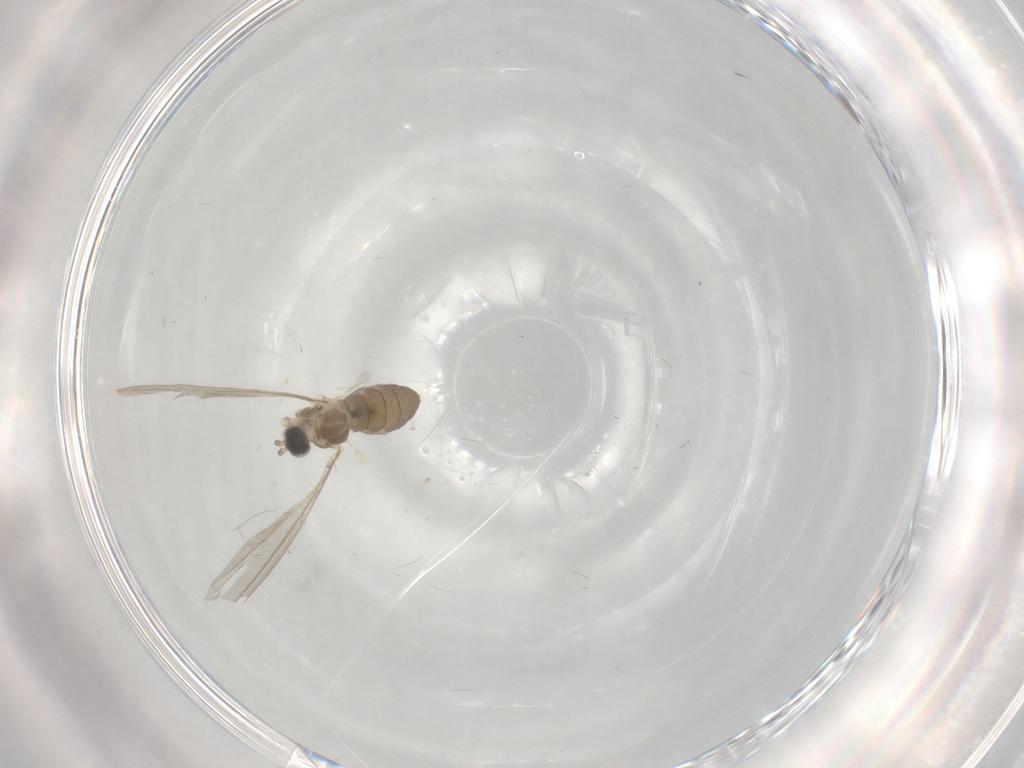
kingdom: Animalia
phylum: Arthropoda
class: Insecta
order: Diptera
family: Cecidomyiidae
